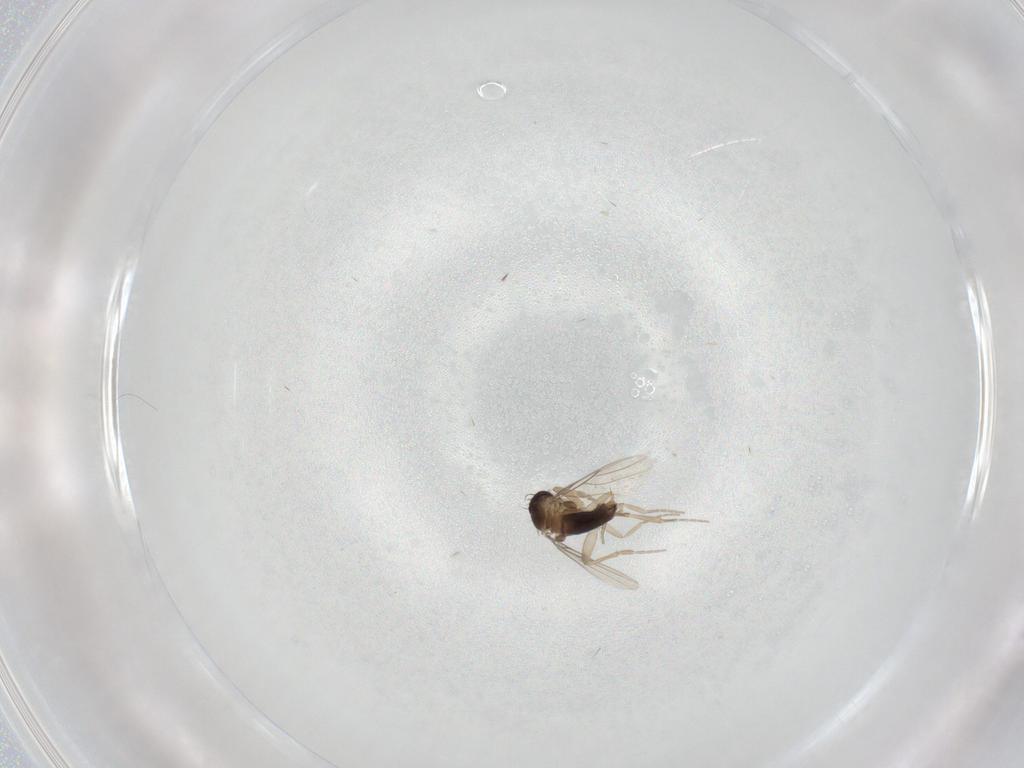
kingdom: Animalia
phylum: Arthropoda
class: Insecta
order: Diptera
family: Phoridae
